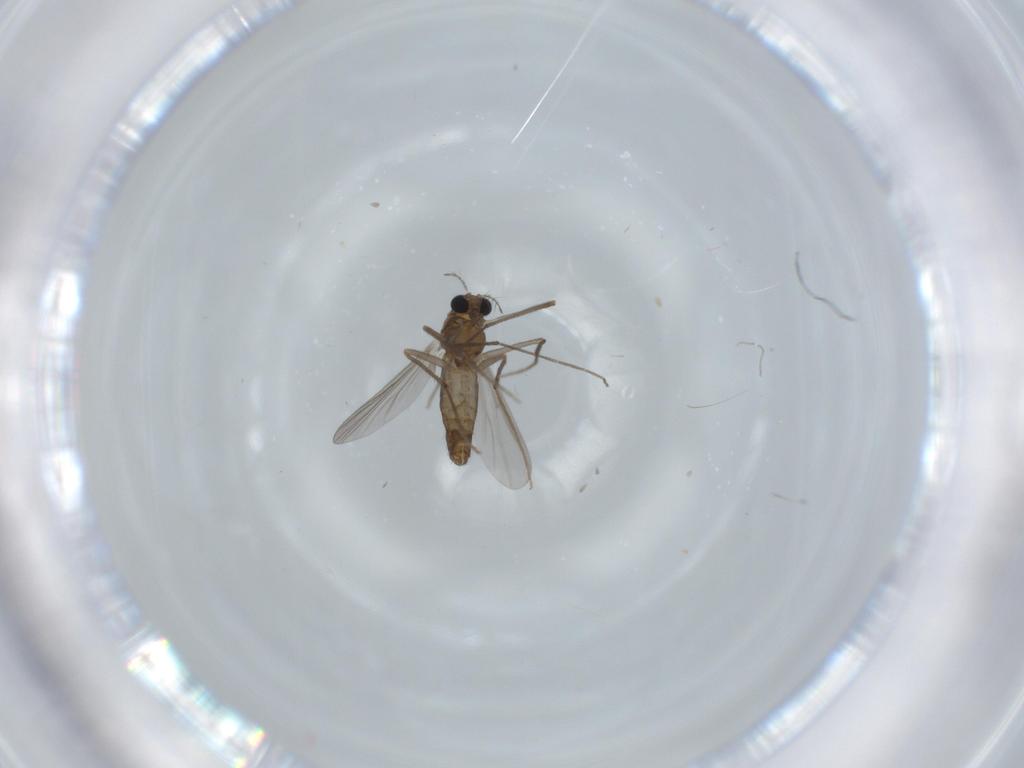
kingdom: Animalia
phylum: Arthropoda
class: Insecta
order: Diptera
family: Chironomidae
